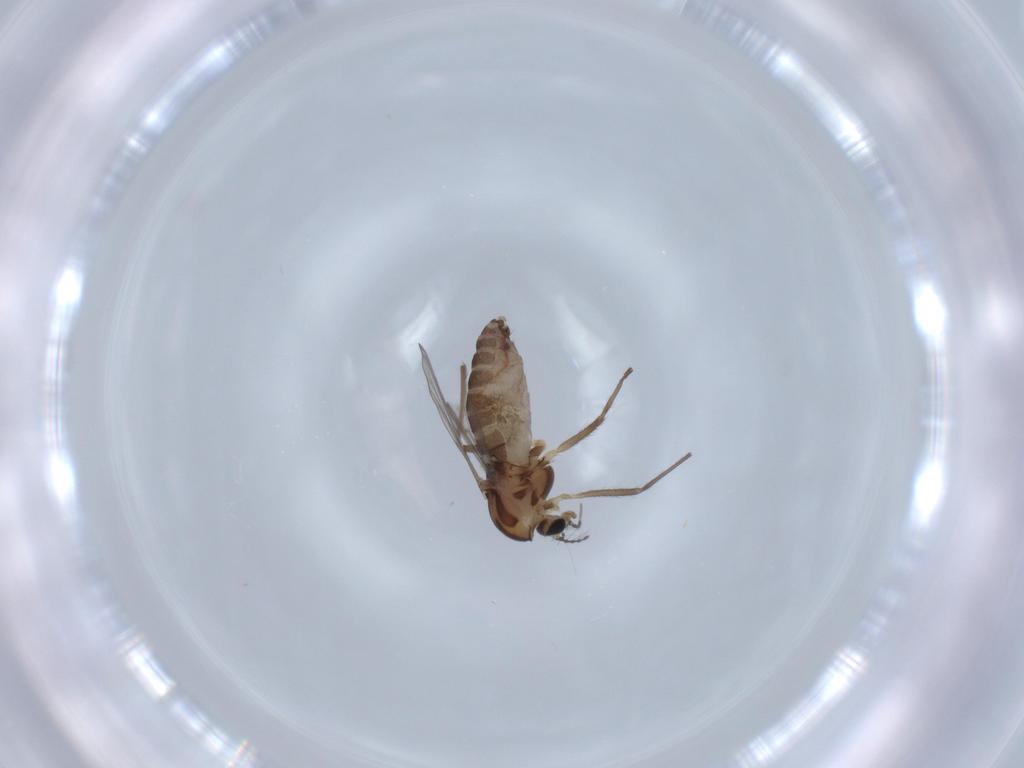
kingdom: Animalia
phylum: Arthropoda
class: Insecta
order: Diptera
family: Chironomidae
